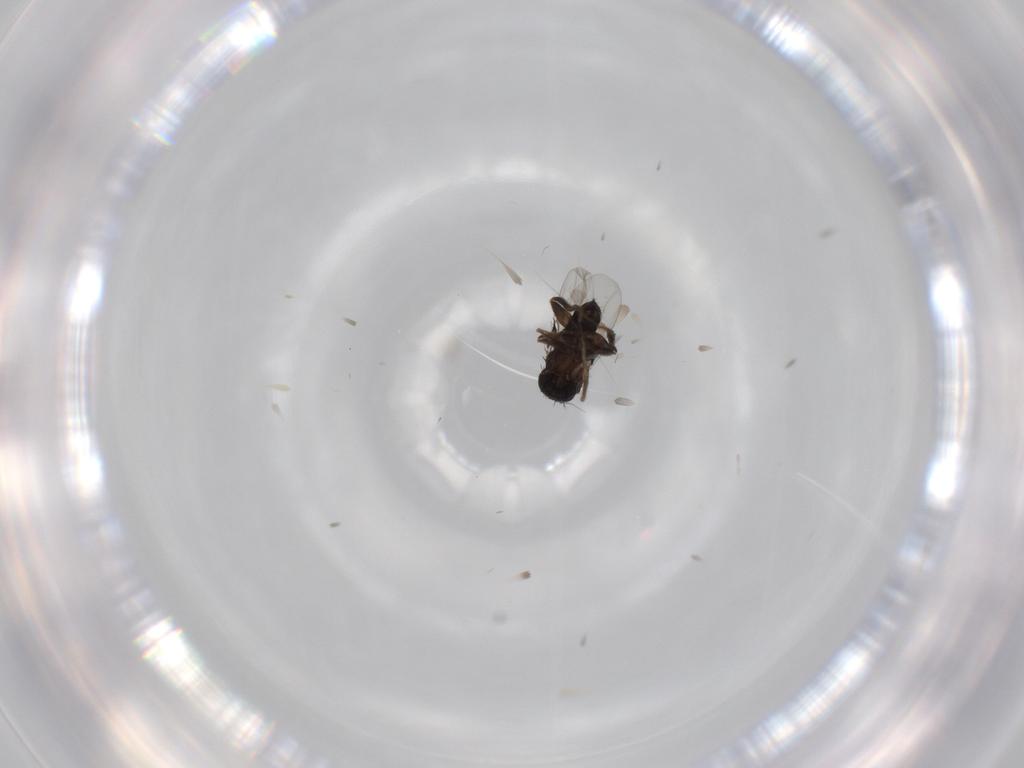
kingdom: Animalia
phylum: Arthropoda
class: Insecta
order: Diptera
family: Phoridae
